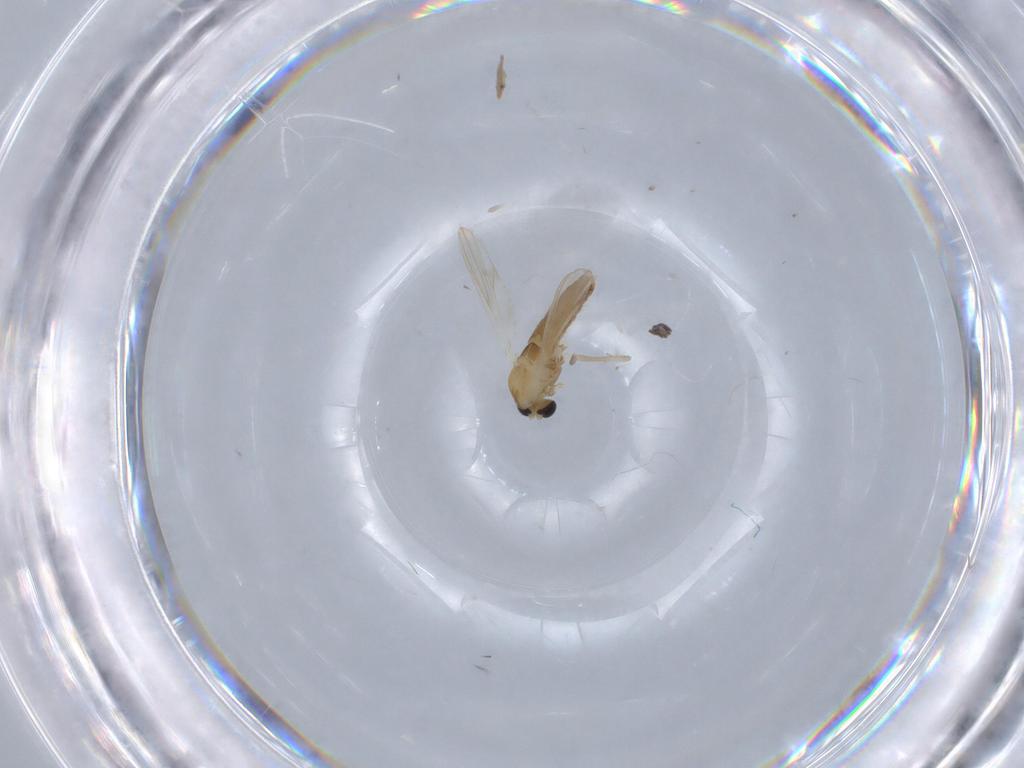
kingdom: Animalia
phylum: Arthropoda
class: Insecta
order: Diptera
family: Chironomidae
